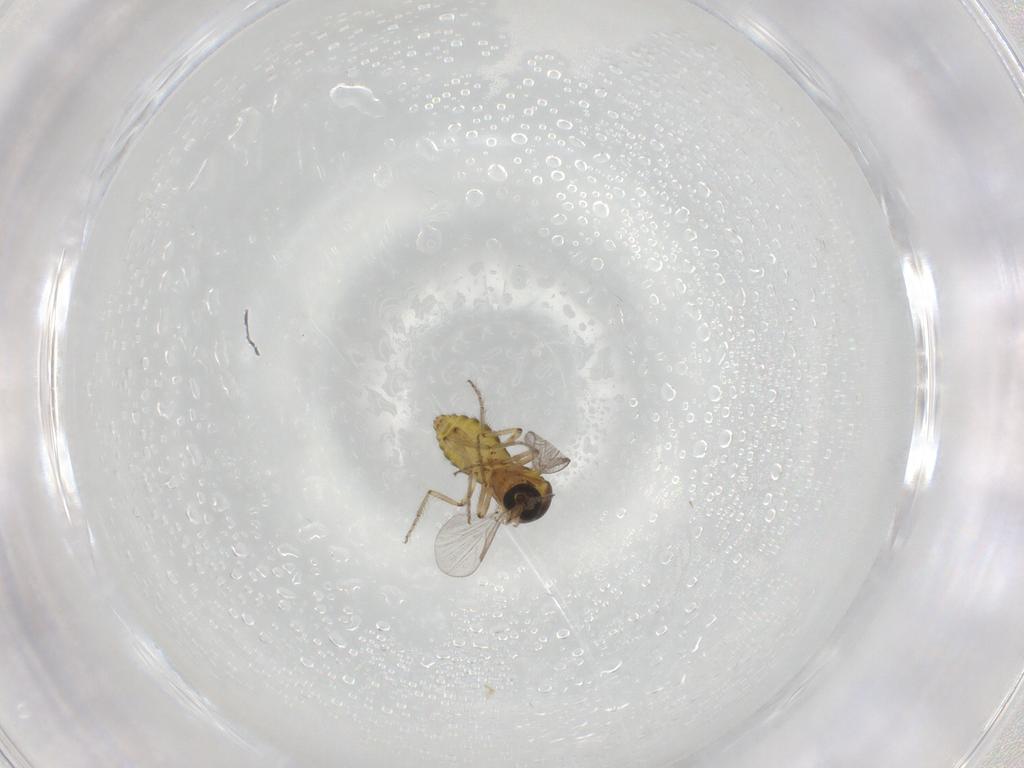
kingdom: Animalia
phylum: Arthropoda
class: Insecta
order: Diptera
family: Ceratopogonidae
